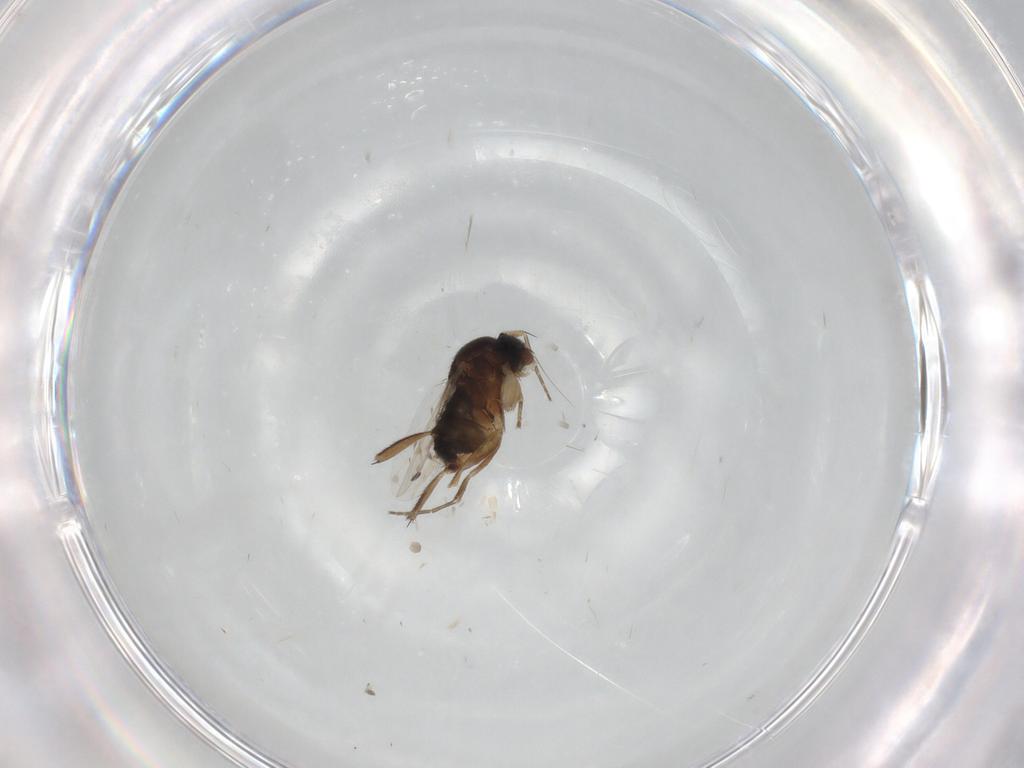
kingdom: Animalia
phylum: Arthropoda
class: Insecta
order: Diptera
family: Phoridae
